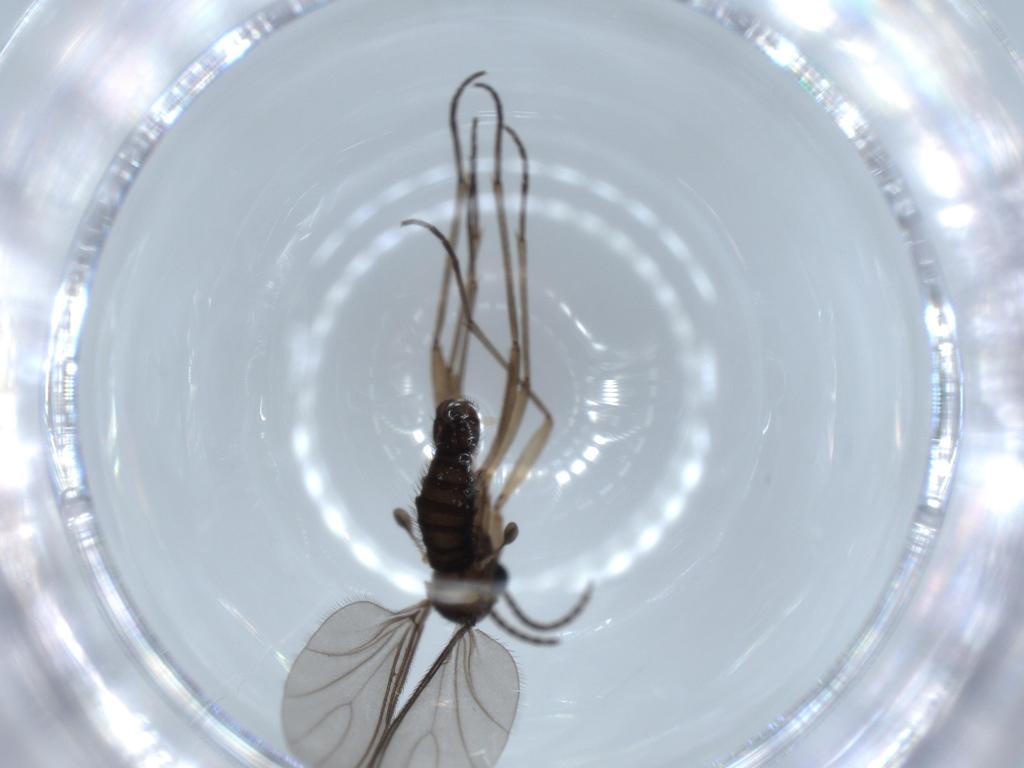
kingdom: Animalia
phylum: Arthropoda
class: Insecta
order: Diptera
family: Sciaridae
